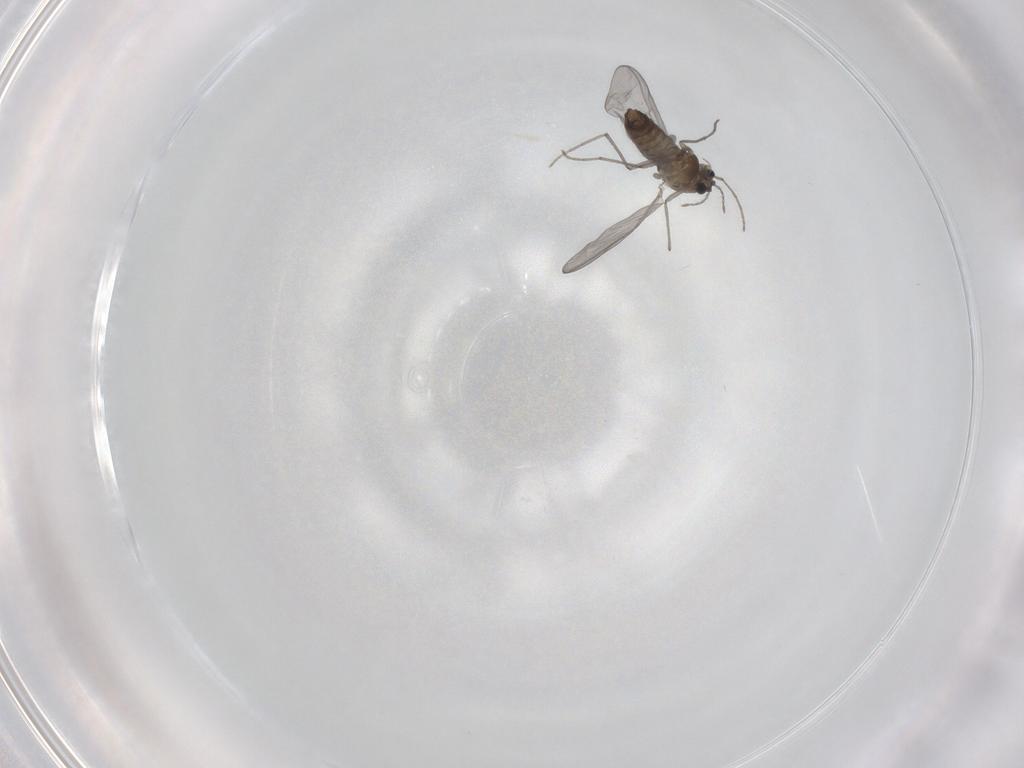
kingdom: Animalia
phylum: Arthropoda
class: Insecta
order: Diptera
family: Chironomidae
